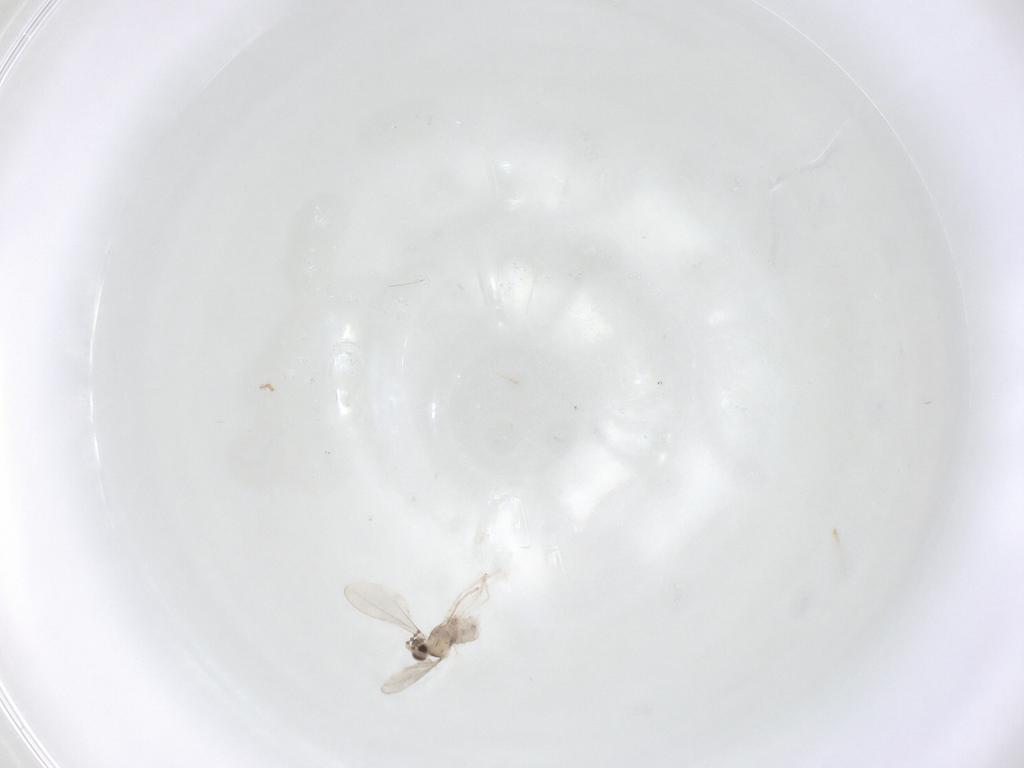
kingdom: Animalia
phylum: Arthropoda
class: Insecta
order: Diptera
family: Cecidomyiidae
